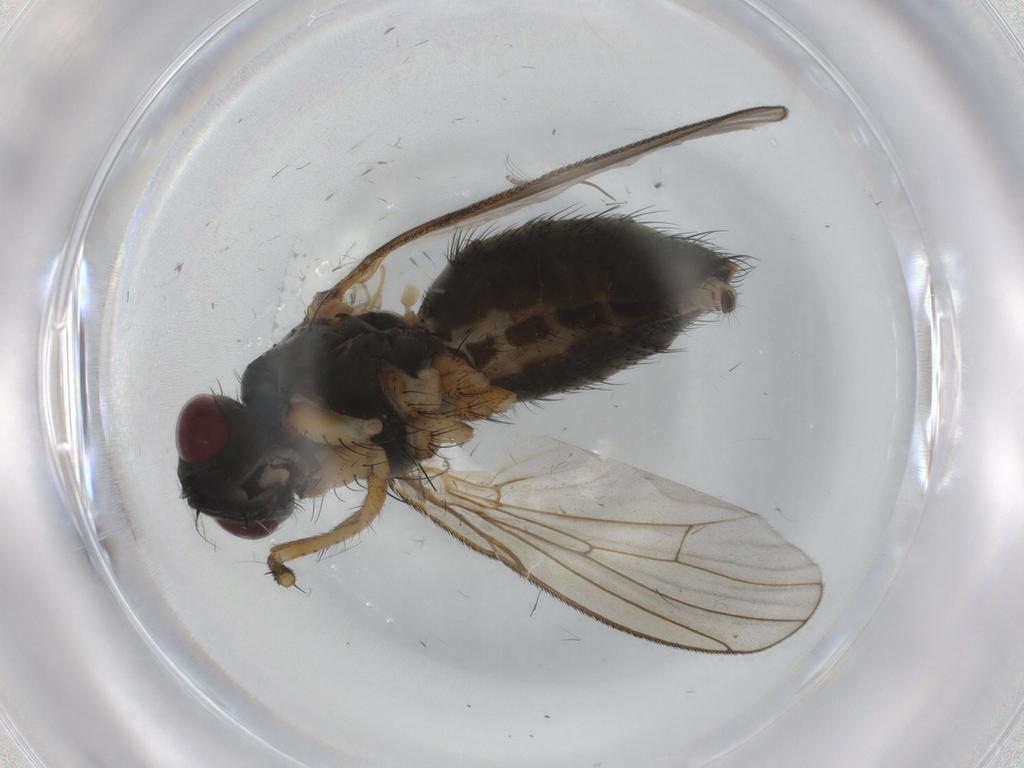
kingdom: Animalia
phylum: Arthropoda
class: Insecta
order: Diptera
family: Muscidae
